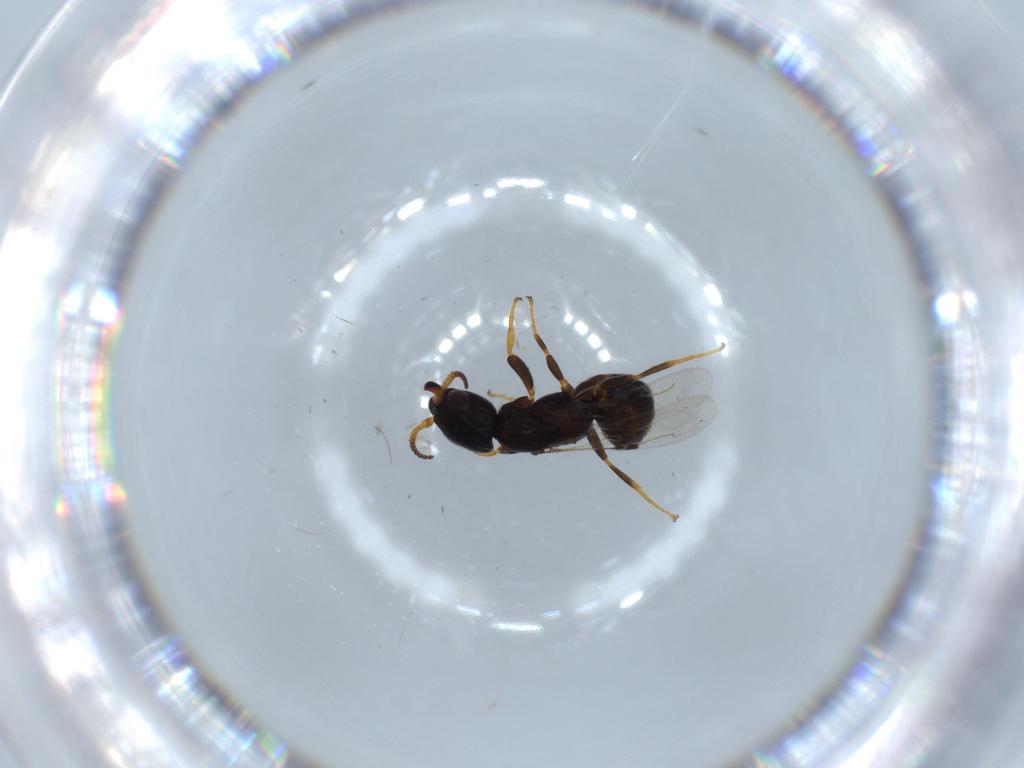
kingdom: Animalia
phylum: Arthropoda
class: Insecta
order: Hymenoptera
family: Bethylidae
